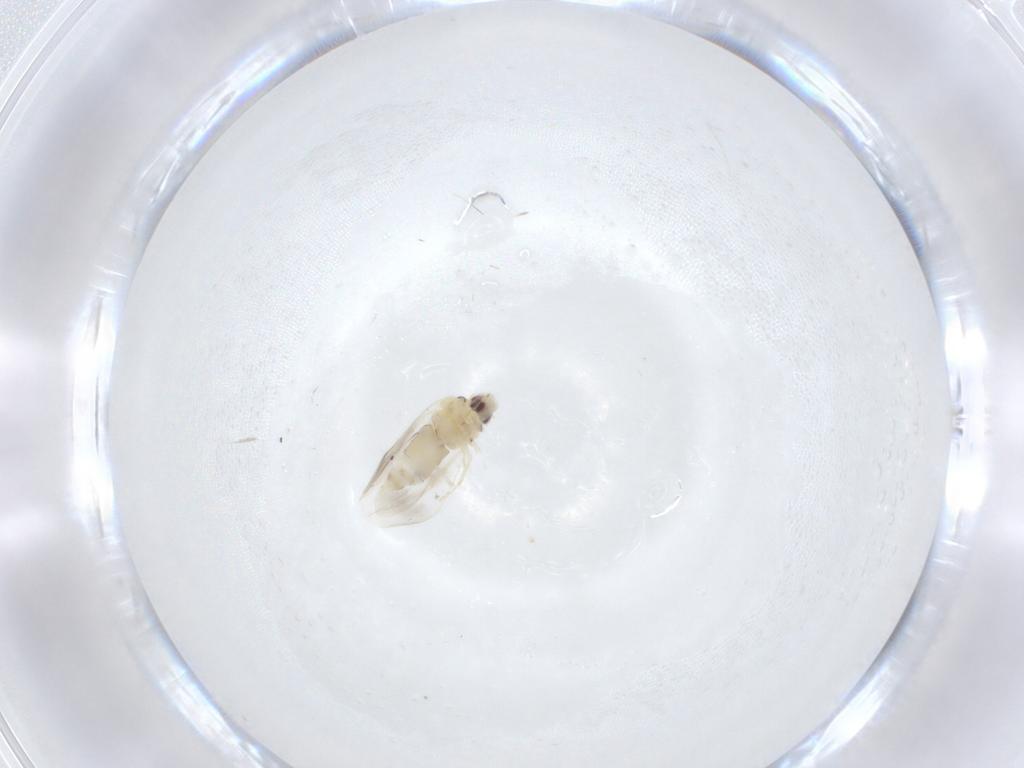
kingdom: Animalia
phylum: Arthropoda
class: Insecta
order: Hemiptera
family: Aleyrodidae
